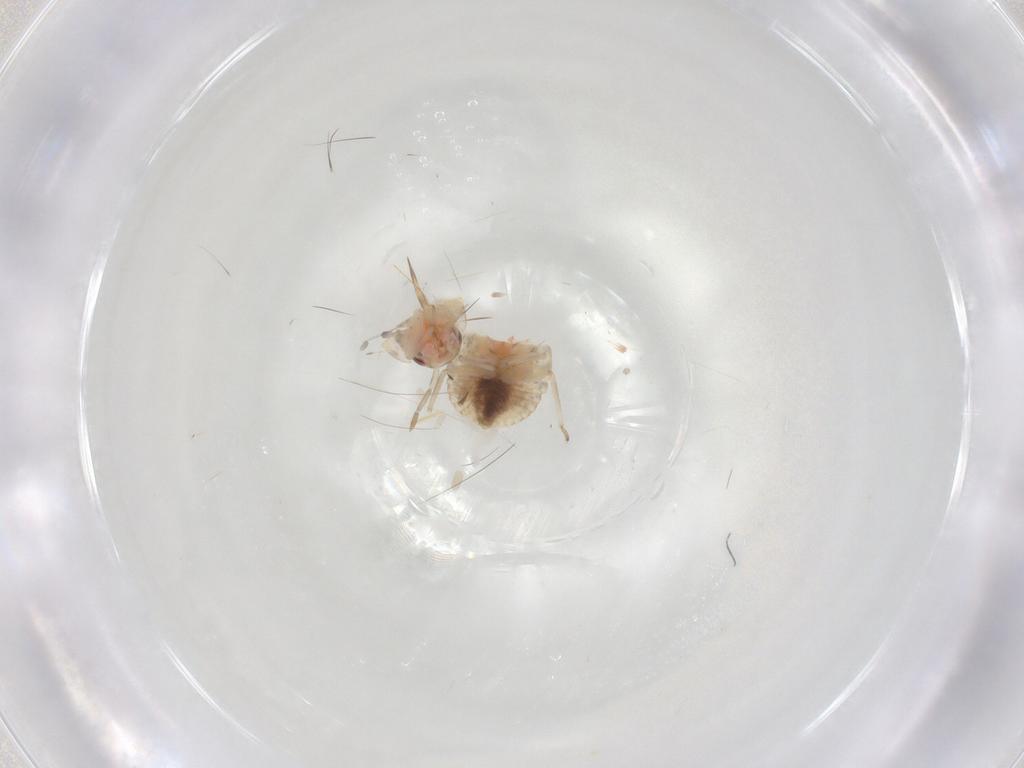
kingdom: Animalia
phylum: Arthropoda
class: Insecta
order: Hemiptera
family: Miridae
